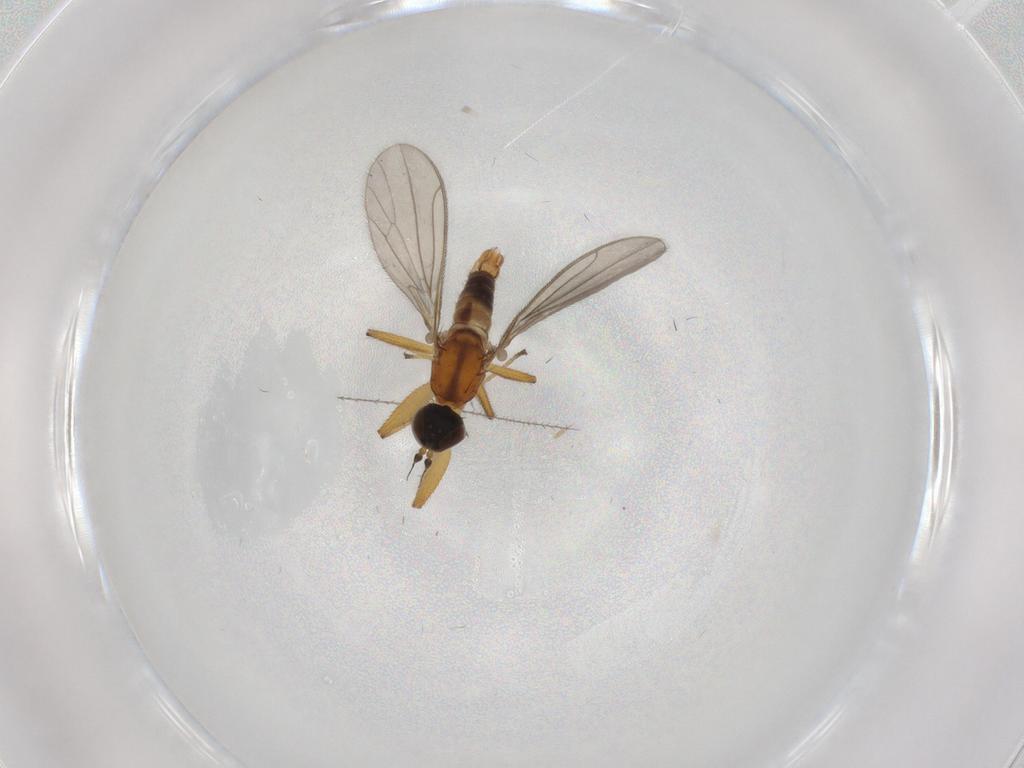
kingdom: Animalia
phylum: Arthropoda
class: Insecta
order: Diptera
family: Empididae
